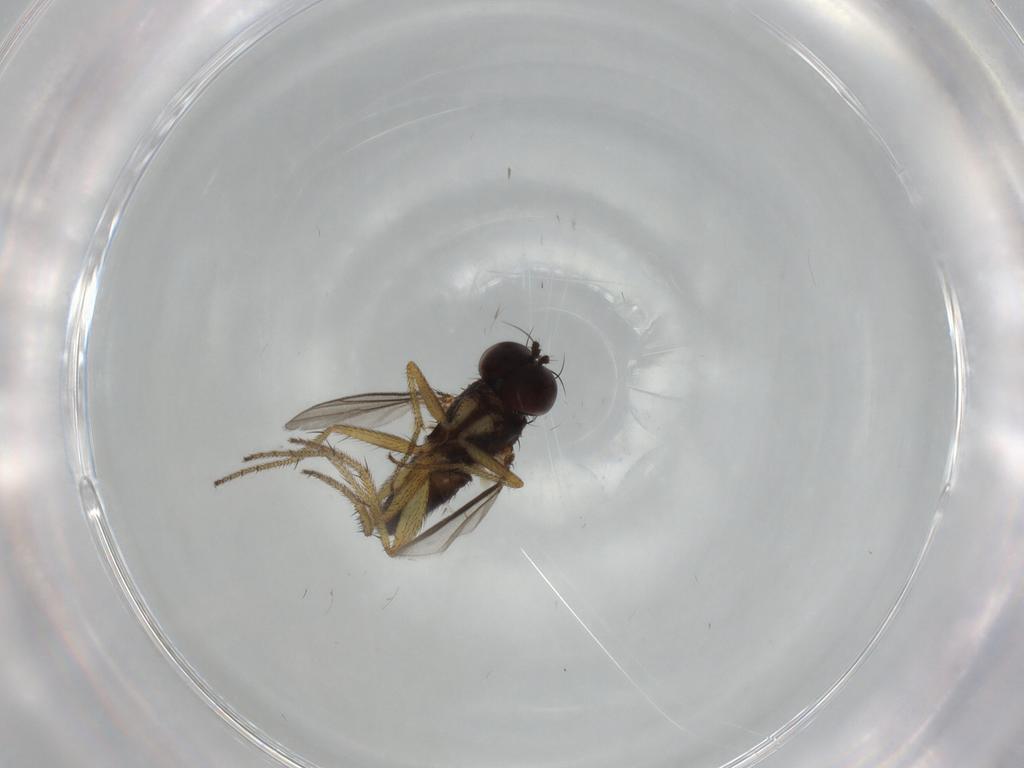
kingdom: Animalia
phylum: Arthropoda
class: Insecta
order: Diptera
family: Dolichopodidae
